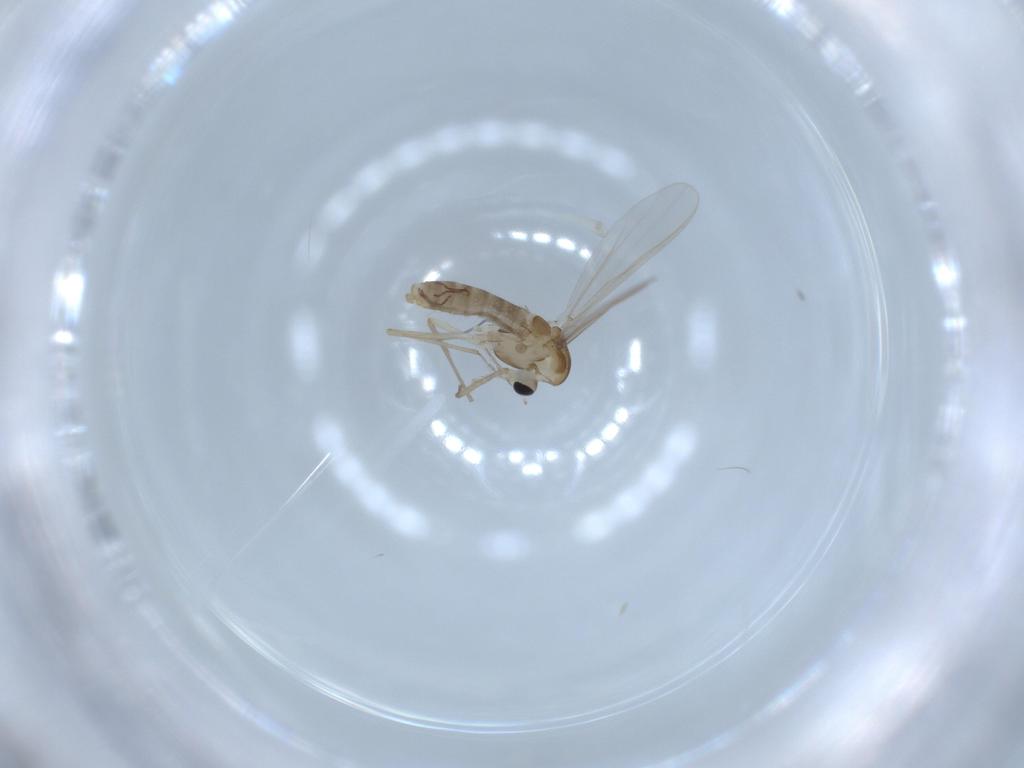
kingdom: Animalia
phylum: Arthropoda
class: Insecta
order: Diptera
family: Chironomidae
